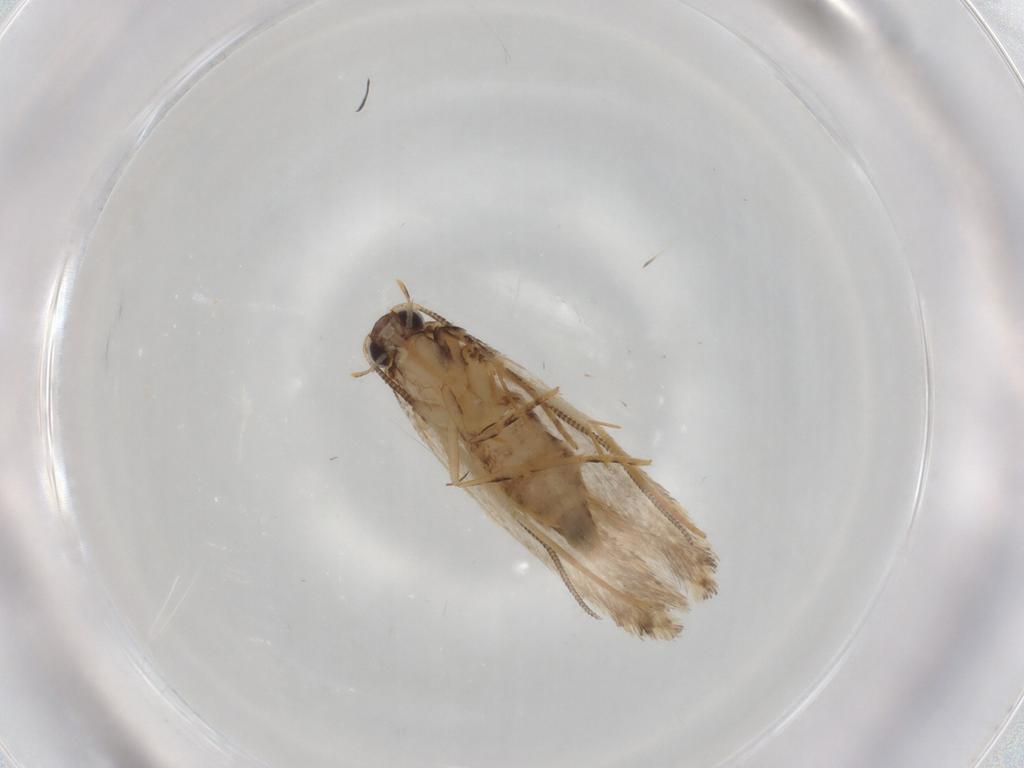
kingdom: Animalia
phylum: Arthropoda
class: Insecta
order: Lepidoptera
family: Tineidae
